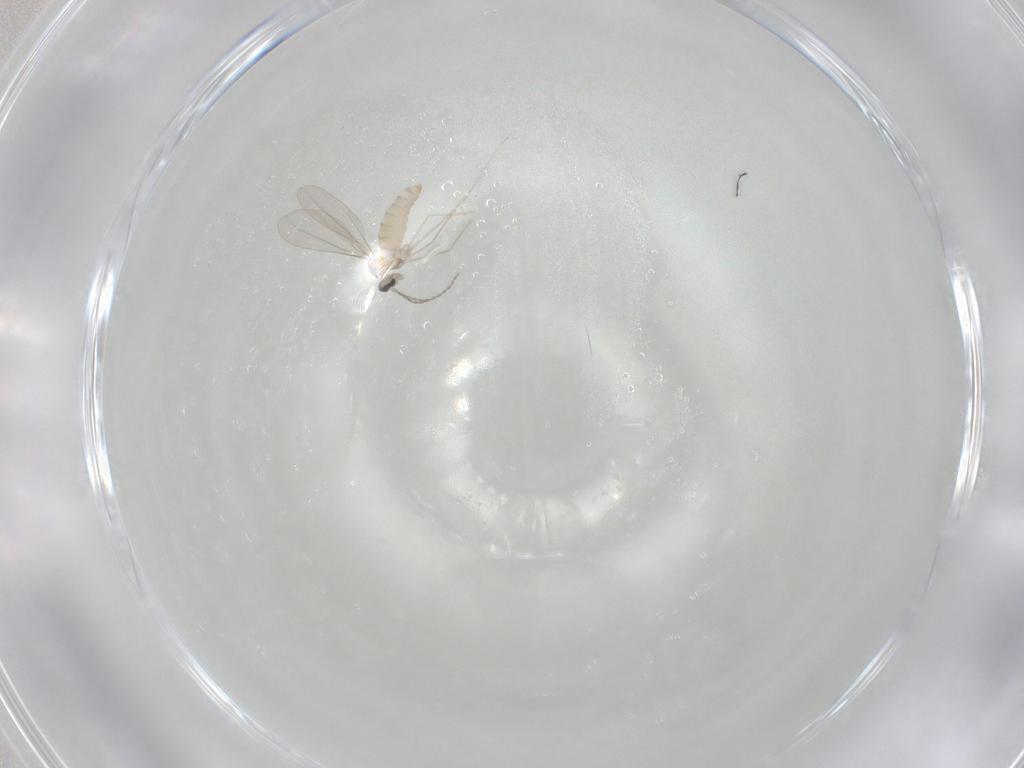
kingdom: Animalia
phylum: Arthropoda
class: Insecta
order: Diptera
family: Cecidomyiidae
